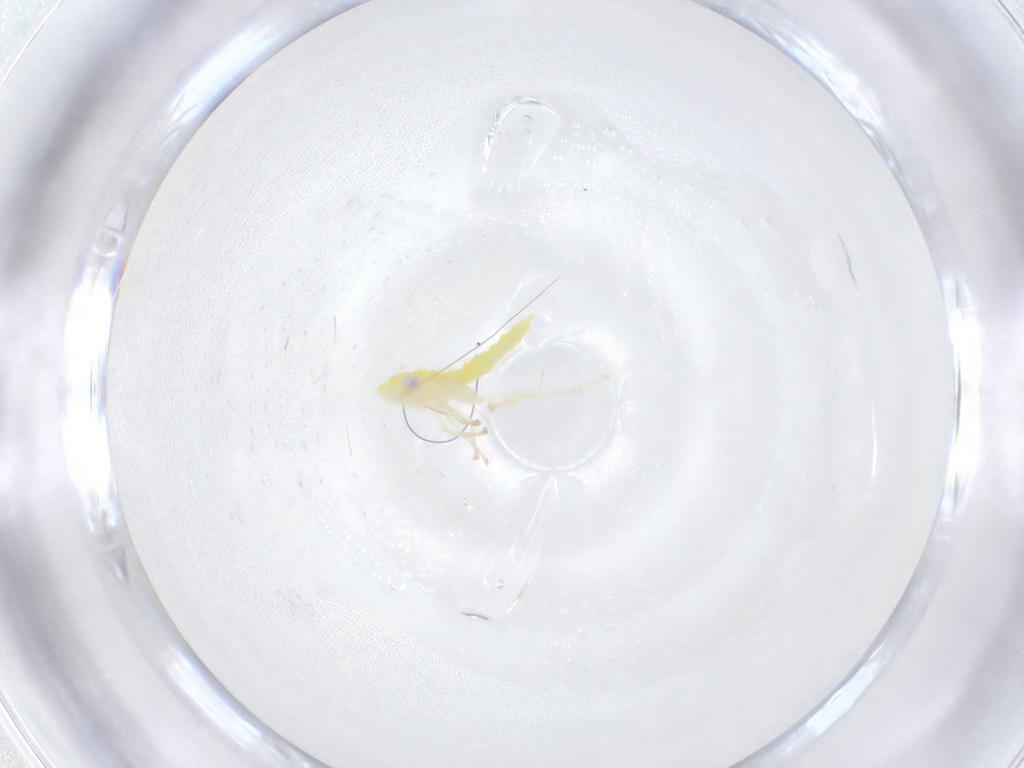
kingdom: Animalia
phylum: Arthropoda
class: Insecta
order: Hemiptera
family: Cicadellidae
